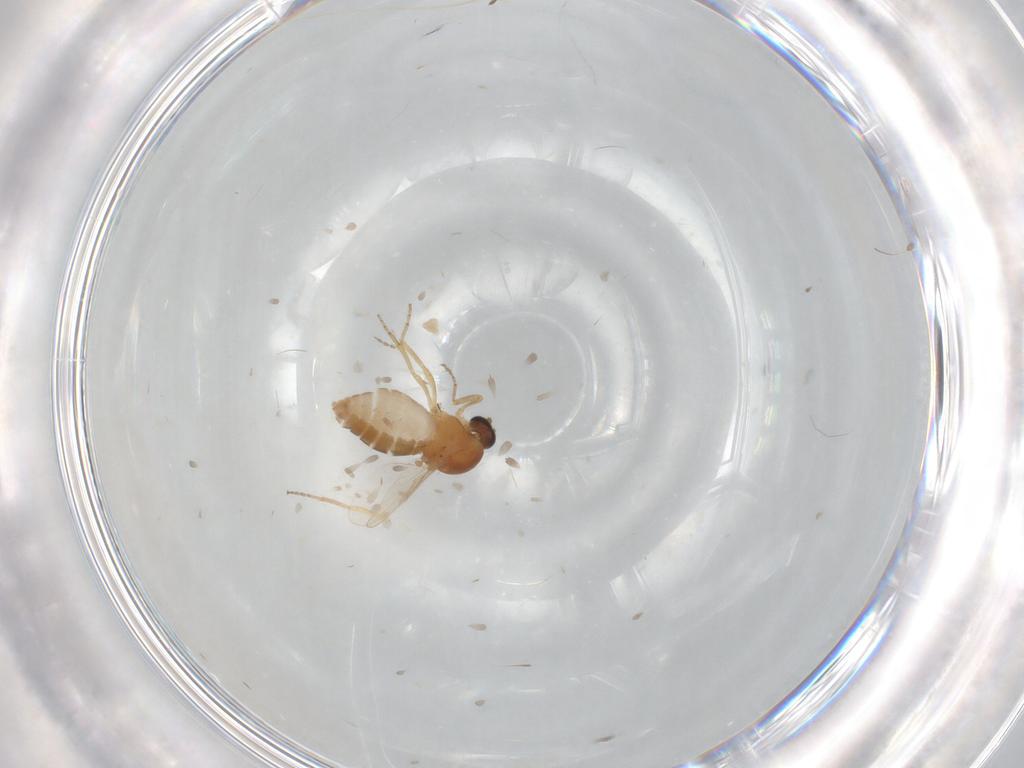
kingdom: Animalia
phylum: Arthropoda
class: Insecta
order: Diptera
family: Ceratopogonidae
